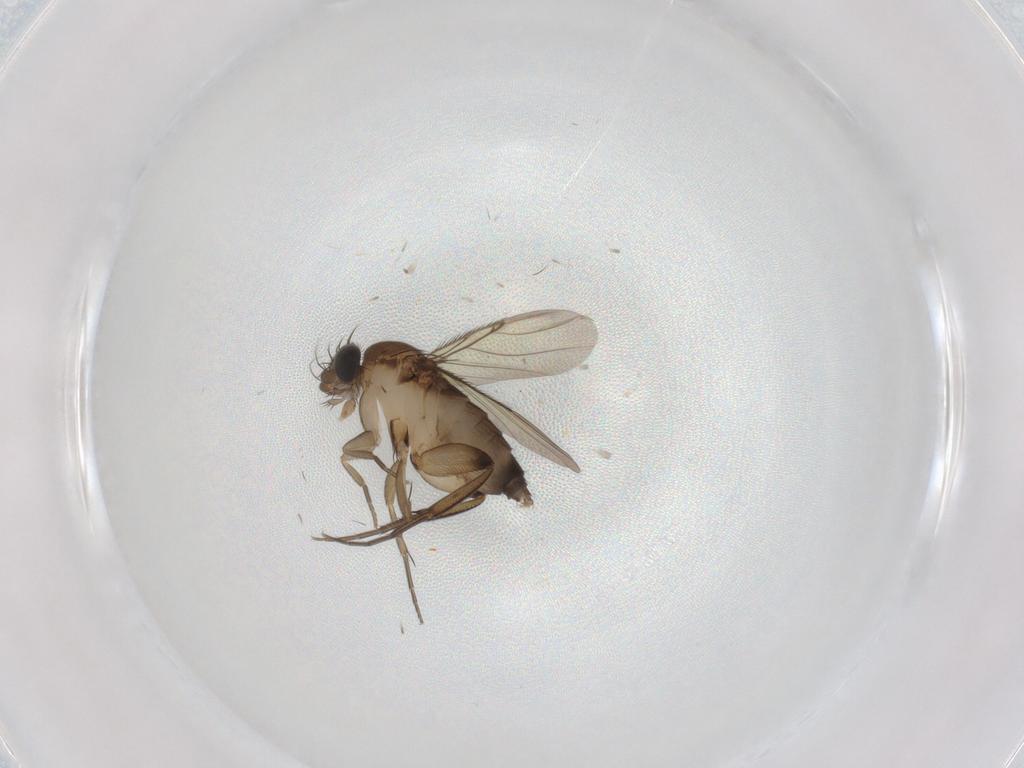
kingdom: Animalia
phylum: Arthropoda
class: Insecta
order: Diptera
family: Phoridae
